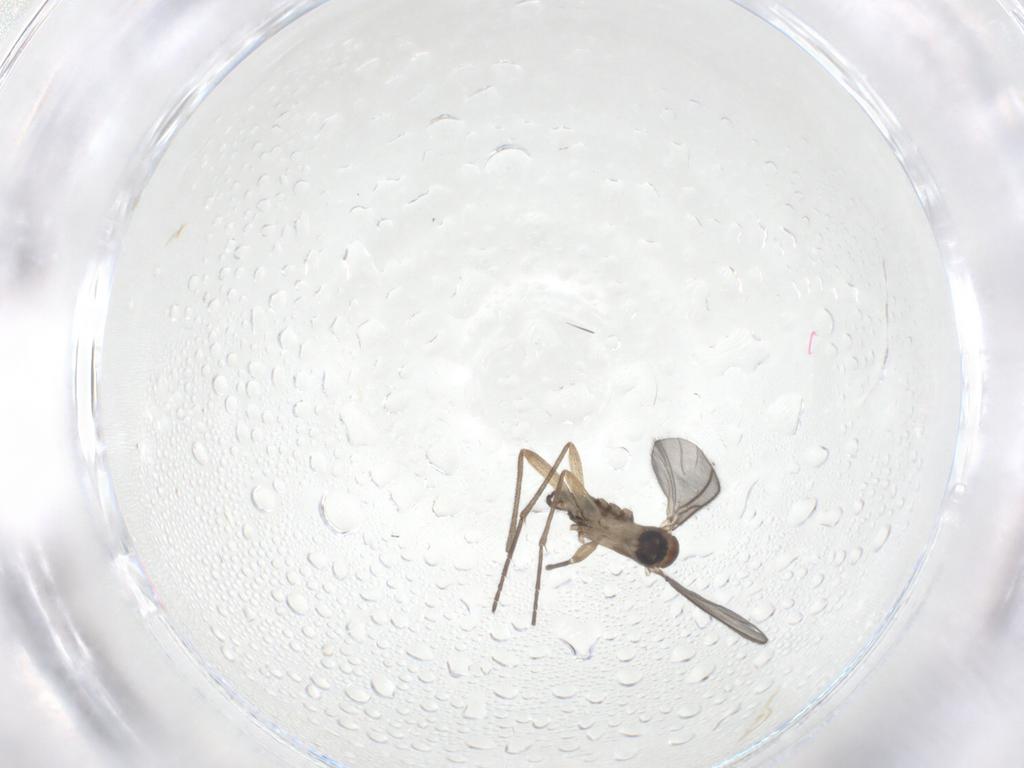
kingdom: Animalia
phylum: Arthropoda
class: Insecta
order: Diptera
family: Sciaridae
